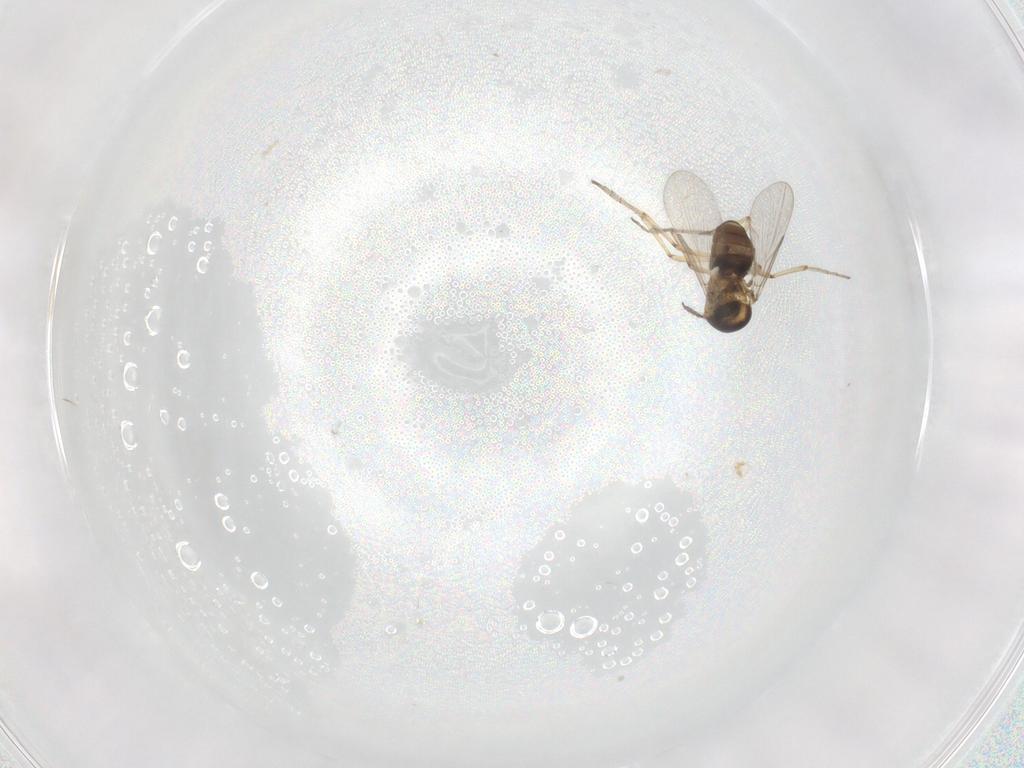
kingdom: Animalia
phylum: Arthropoda
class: Insecta
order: Diptera
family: Ceratopogonidae
